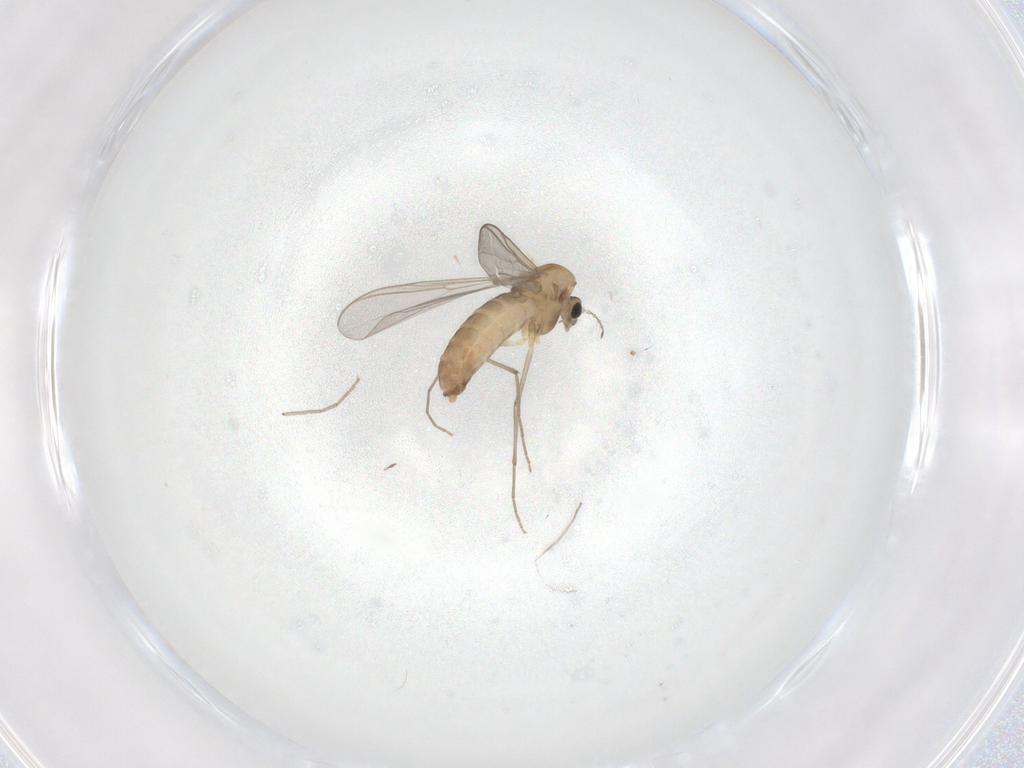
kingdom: Animalia
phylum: Arthropoda
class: Insecta
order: Diptera
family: Chironomidae
